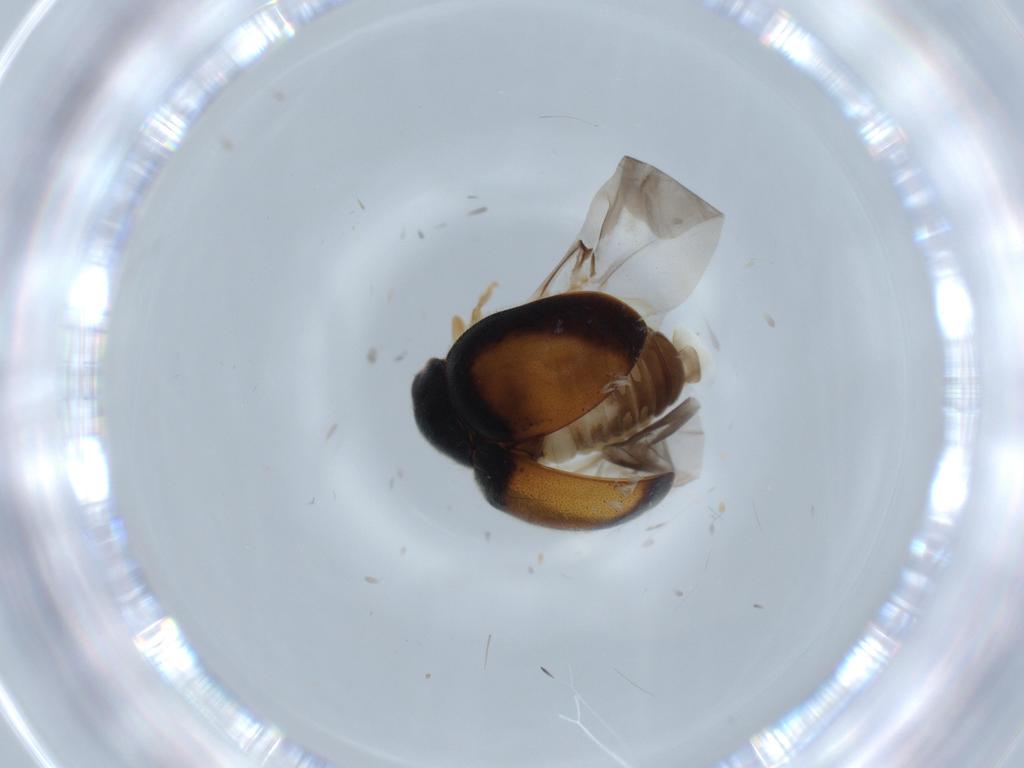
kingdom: Animalia
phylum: Arthropoda
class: Insecta
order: Coleoptera
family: Coccinellidae
